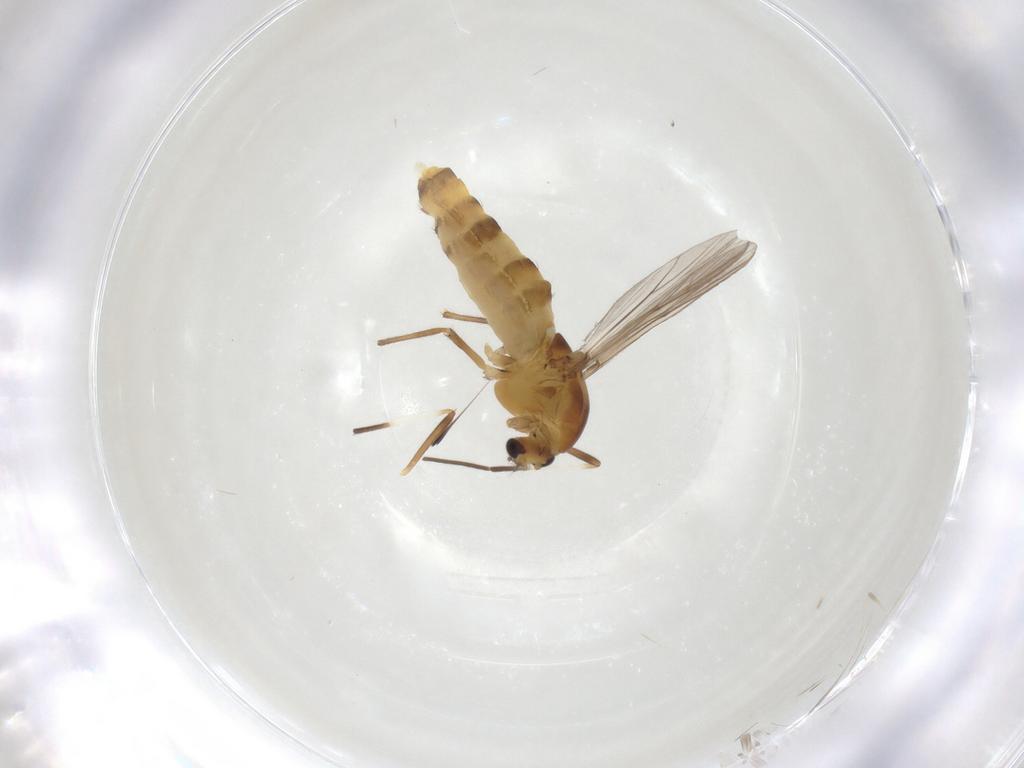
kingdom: Animalia
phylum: Arthropoda
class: Insecta
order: Diptera
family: Chironomidae
